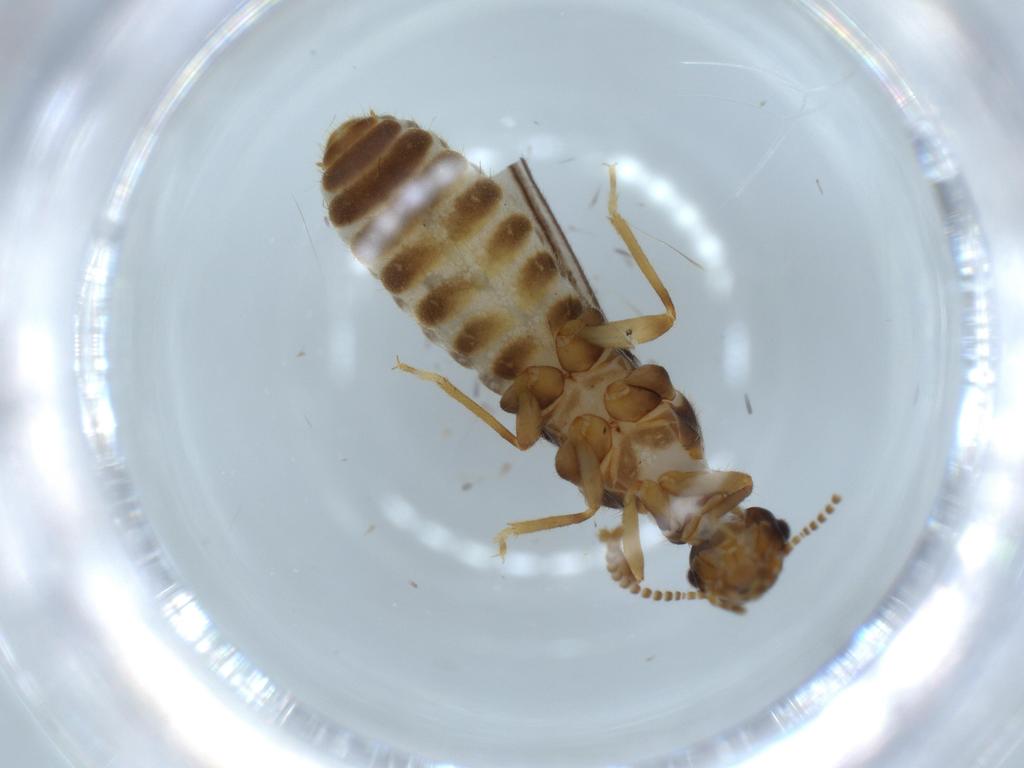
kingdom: Animalia
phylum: Arthropoda
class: Insecta
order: Blattodea
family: Termitidae
